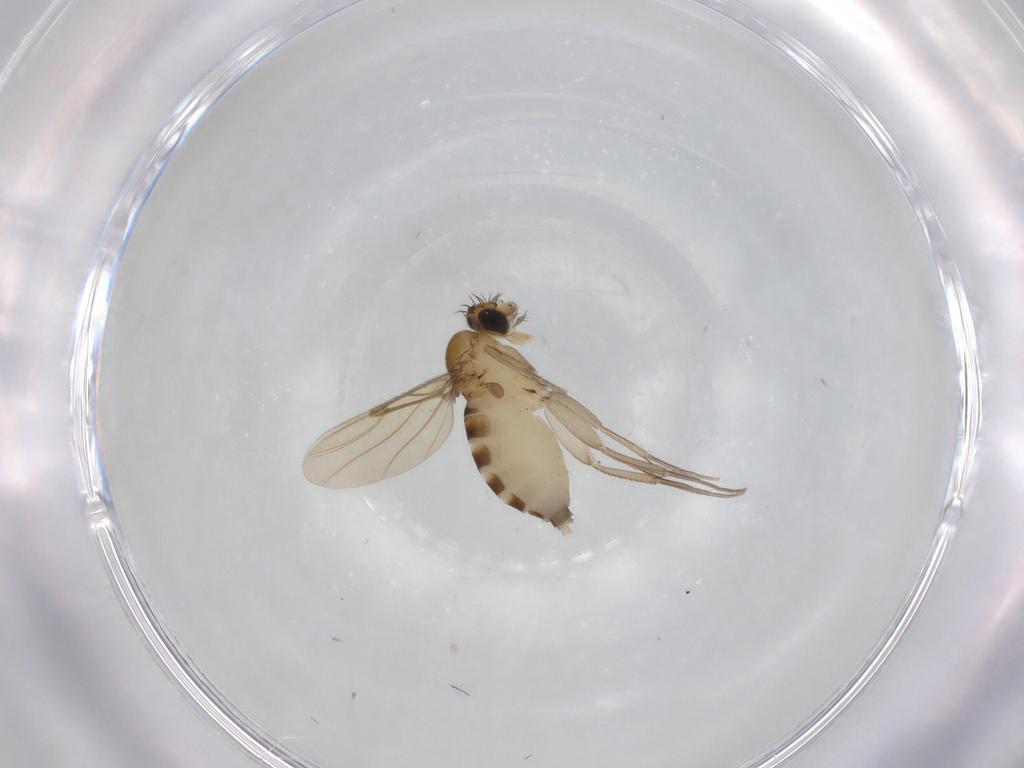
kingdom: Animalia
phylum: Arthropoda
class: Insecta
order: Diptera
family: Phoridae
